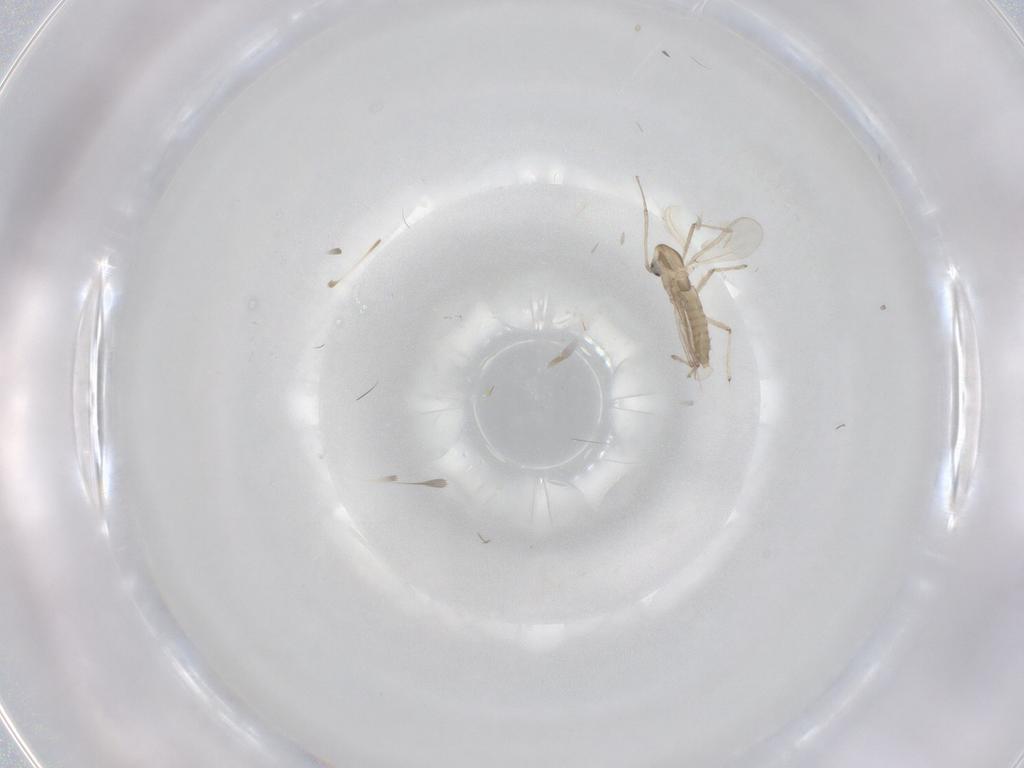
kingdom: Animalia
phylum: Arthropoda
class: Insecta
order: Diptera
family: Chironomidae
